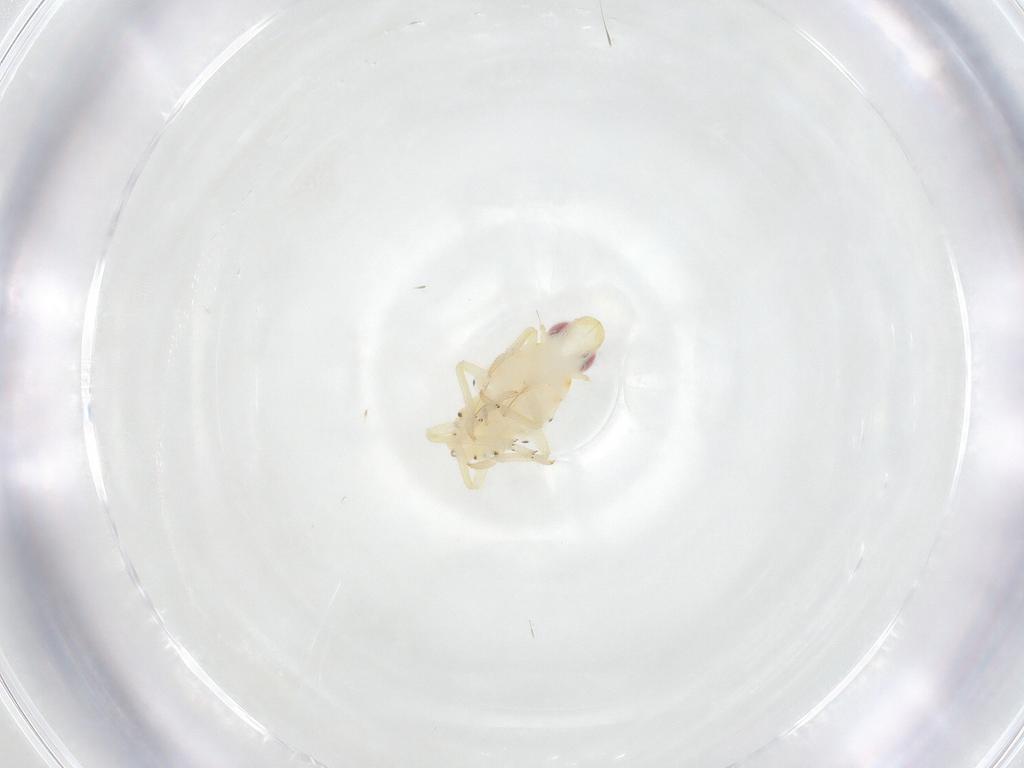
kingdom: Animalia
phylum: Arthropoda
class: Insecta
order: Hemiptera
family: Tropiduchidae
